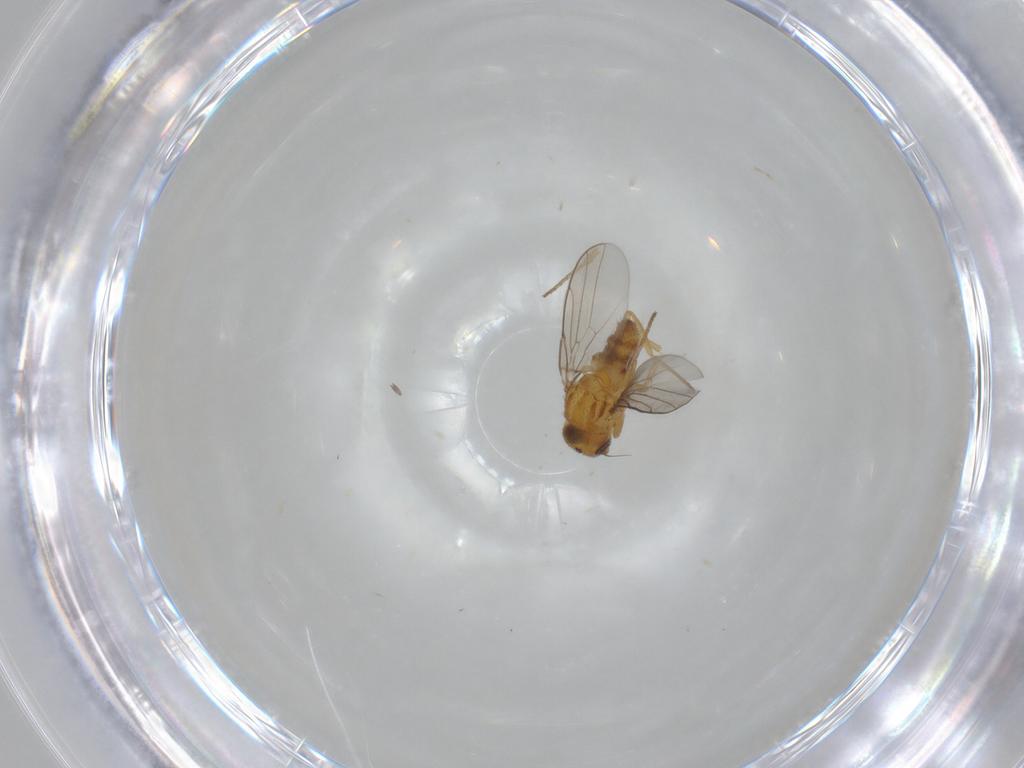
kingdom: Animalia
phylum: Arthropoda
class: Insecta
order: Diptera
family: Chloropidae
